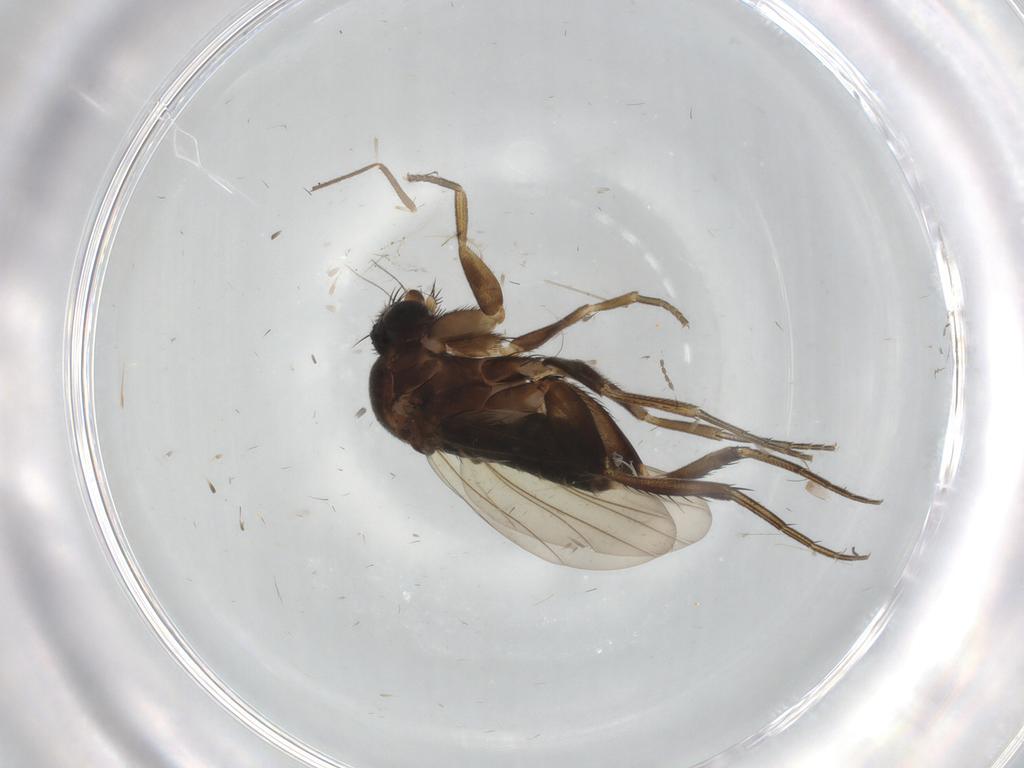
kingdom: Animalia
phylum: Arthropoda
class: Insecta
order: Diptera
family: Phoridae
